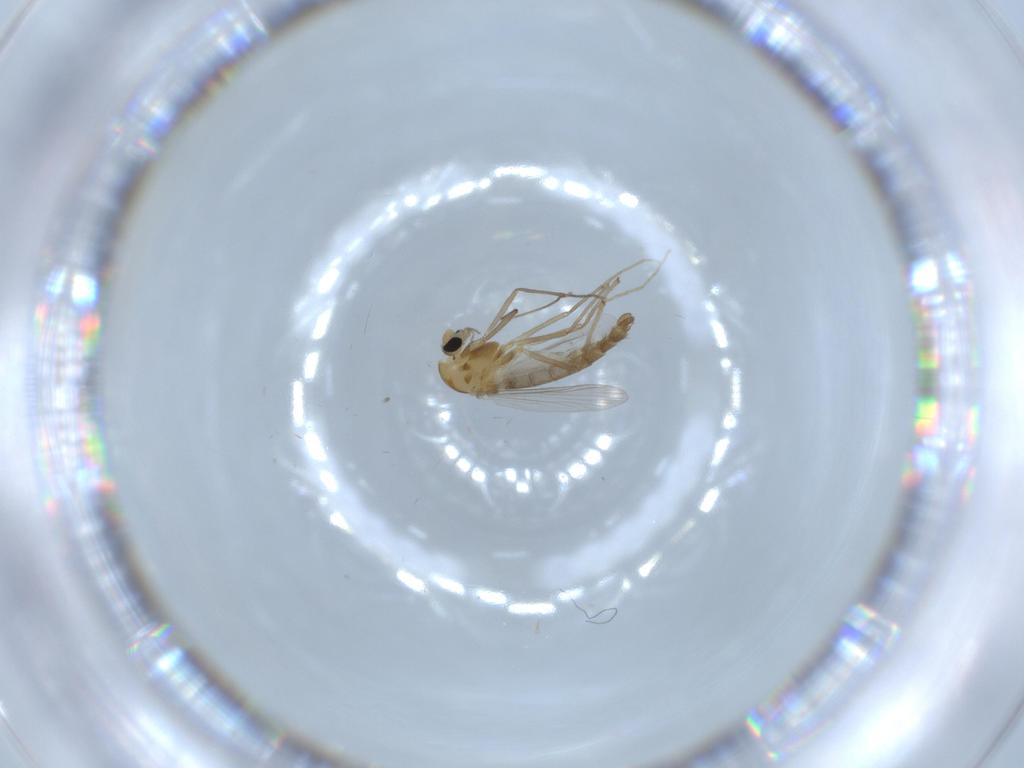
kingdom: Animalia
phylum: Arthropoda
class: Insecta
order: Diptera
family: Chironomidae
